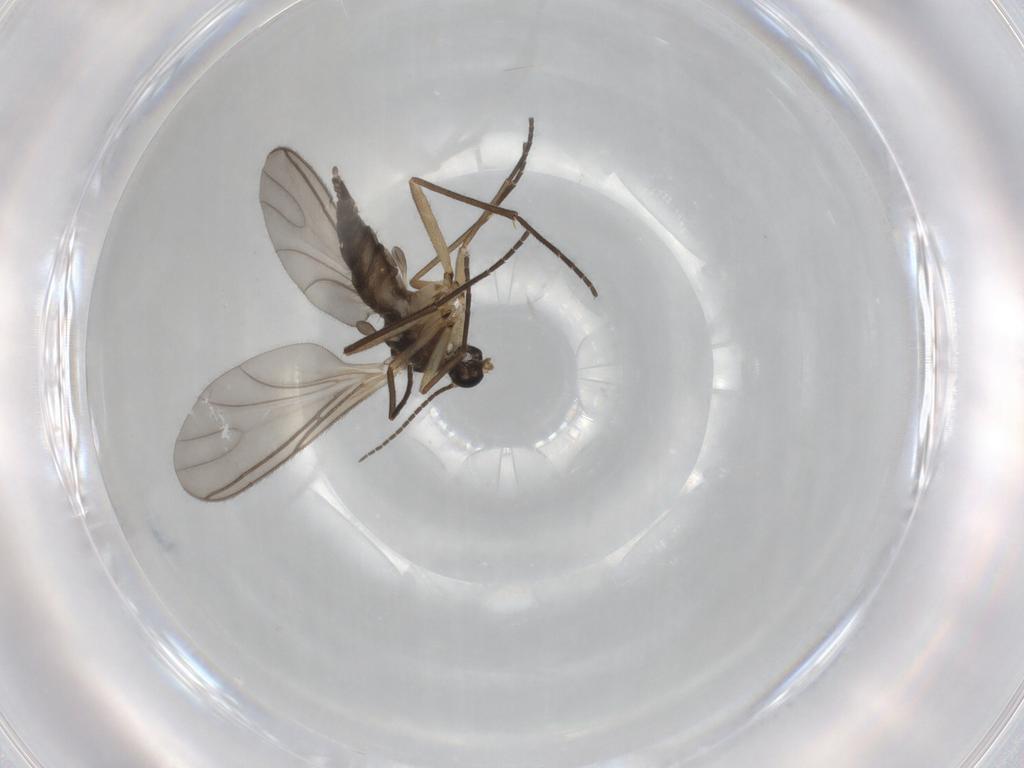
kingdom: Animalia
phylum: Arthropoda
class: Insecta
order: Diptera
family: Sciaridae
